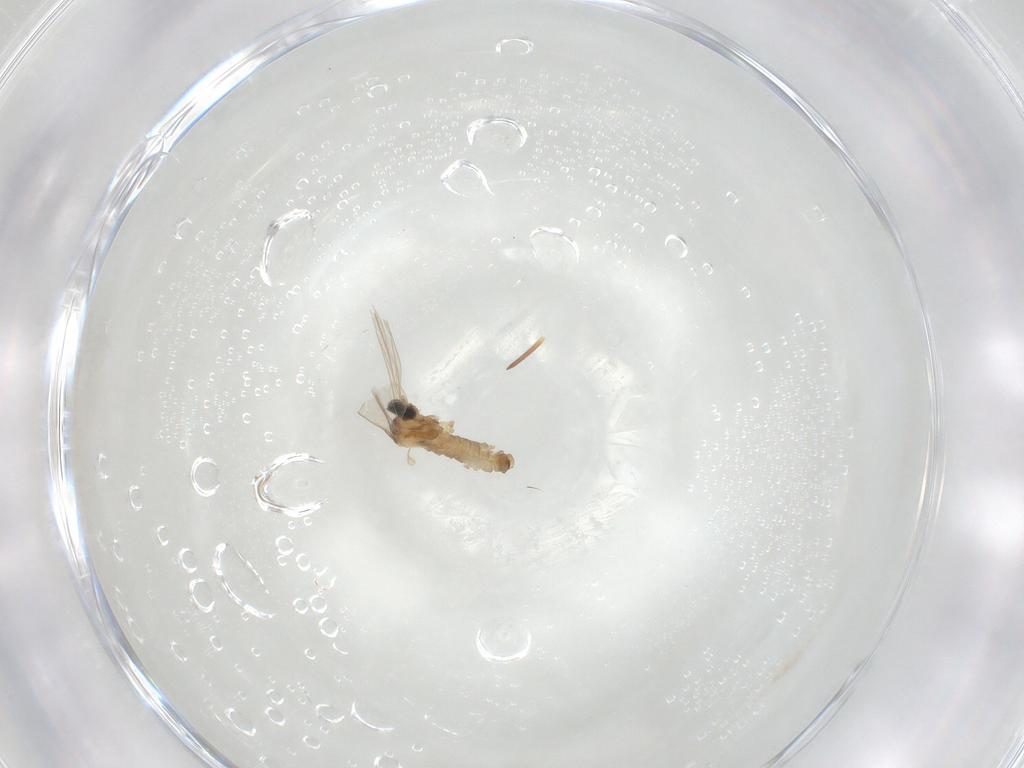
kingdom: Animalia
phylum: Arthropoda
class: Insecta
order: Diptera
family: Cecidomyiidae
